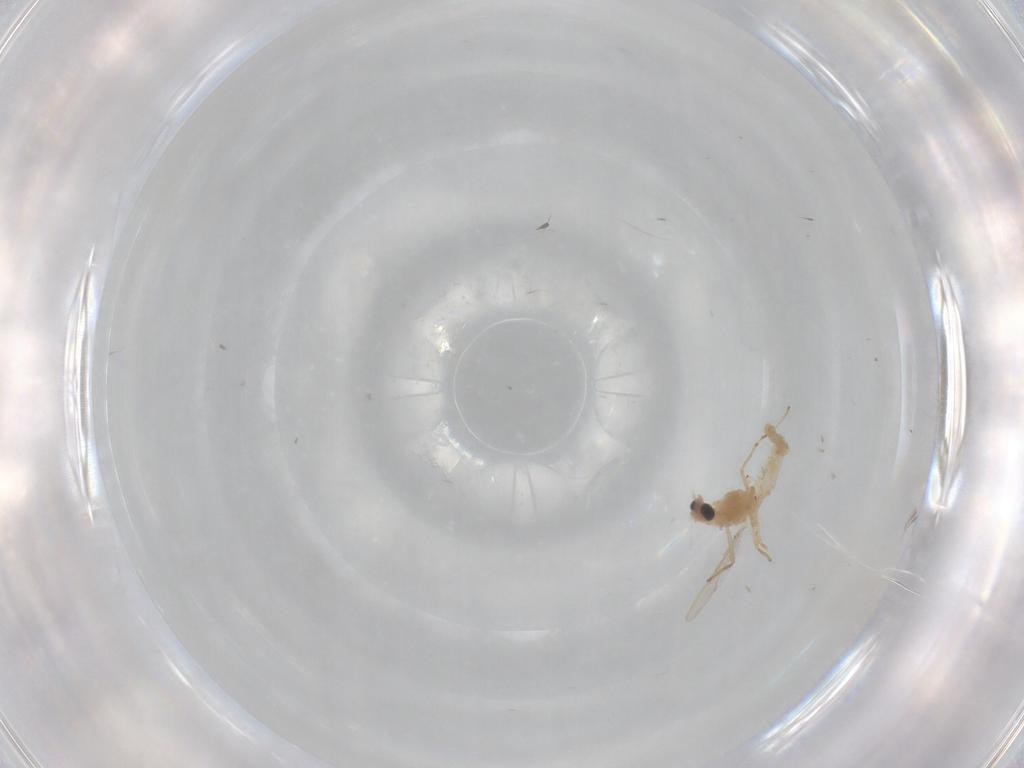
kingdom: Animalia
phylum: Arthropoda
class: Insecta
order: Diptera
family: Chironomidae
